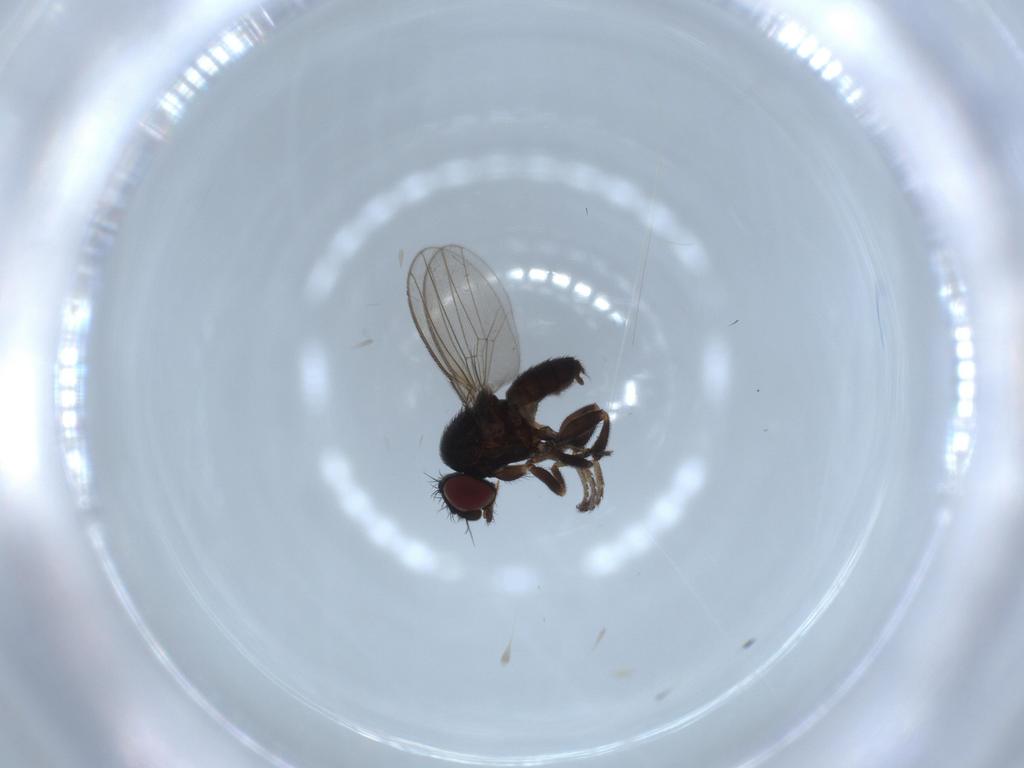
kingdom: Animalia
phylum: Arthropoda
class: Insecta
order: Diptera
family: Milichiidae
